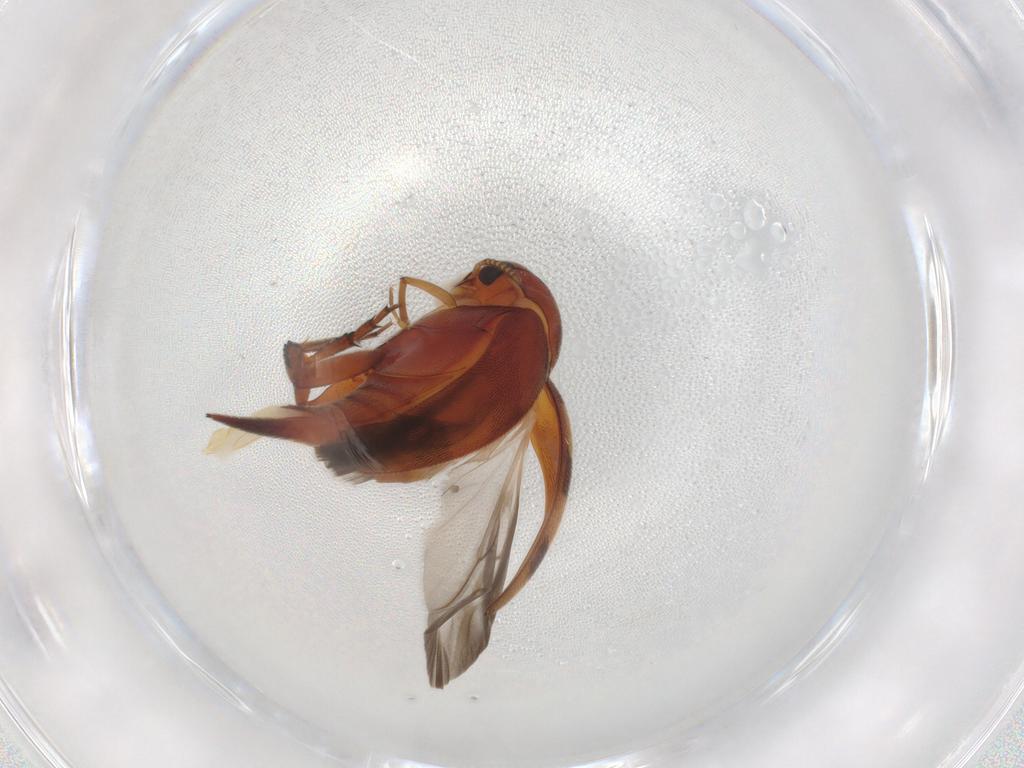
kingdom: Animalia
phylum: Arthropoda
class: Insecta
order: Coleoptera
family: Mordellidae
